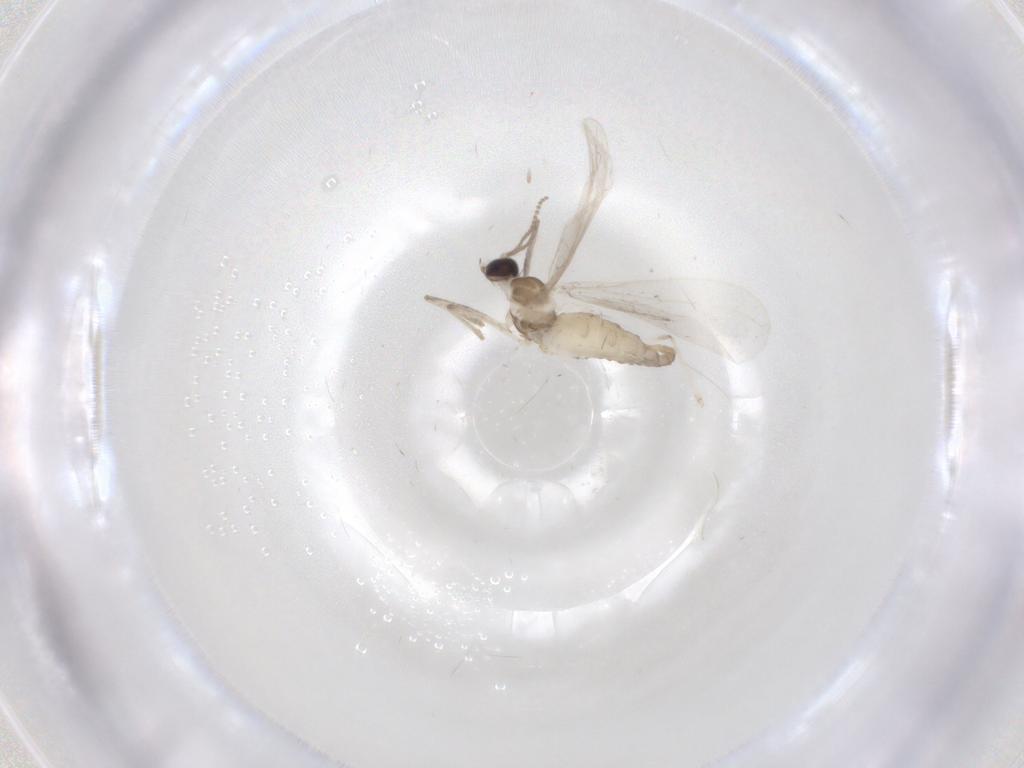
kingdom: Animalia
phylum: Arthropoda
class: Insecta
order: Diptera
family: Cecidomyiidae
